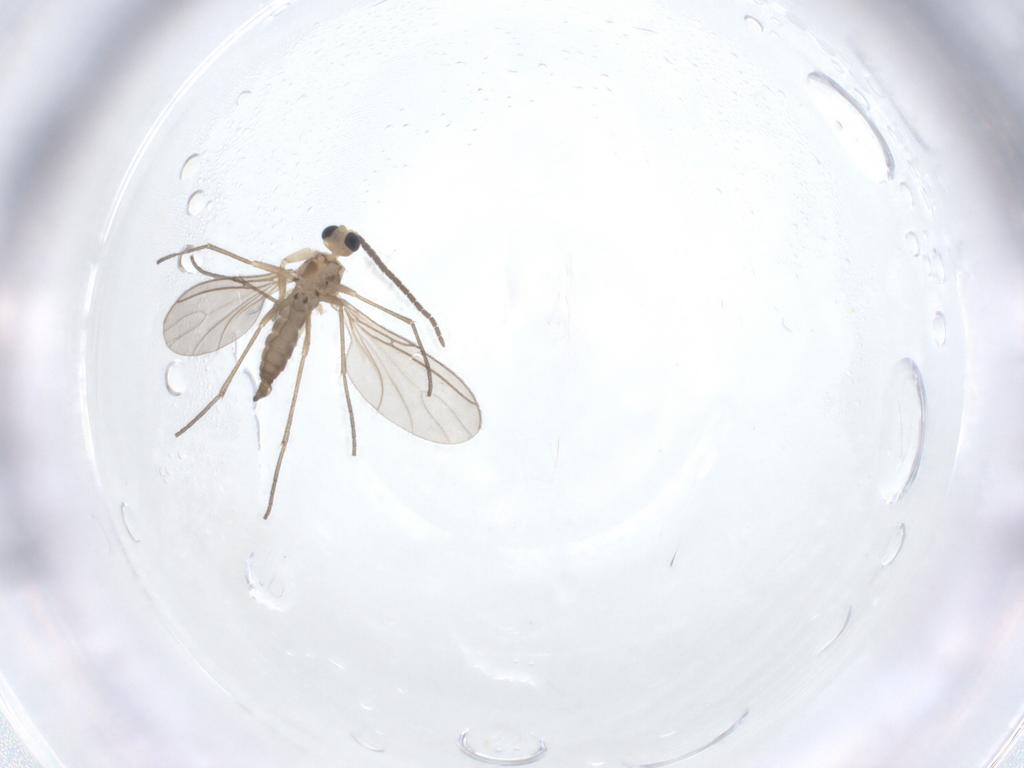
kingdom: Animalia
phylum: Arthropoda
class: Insecta
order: Diptera
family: Sciaridae
